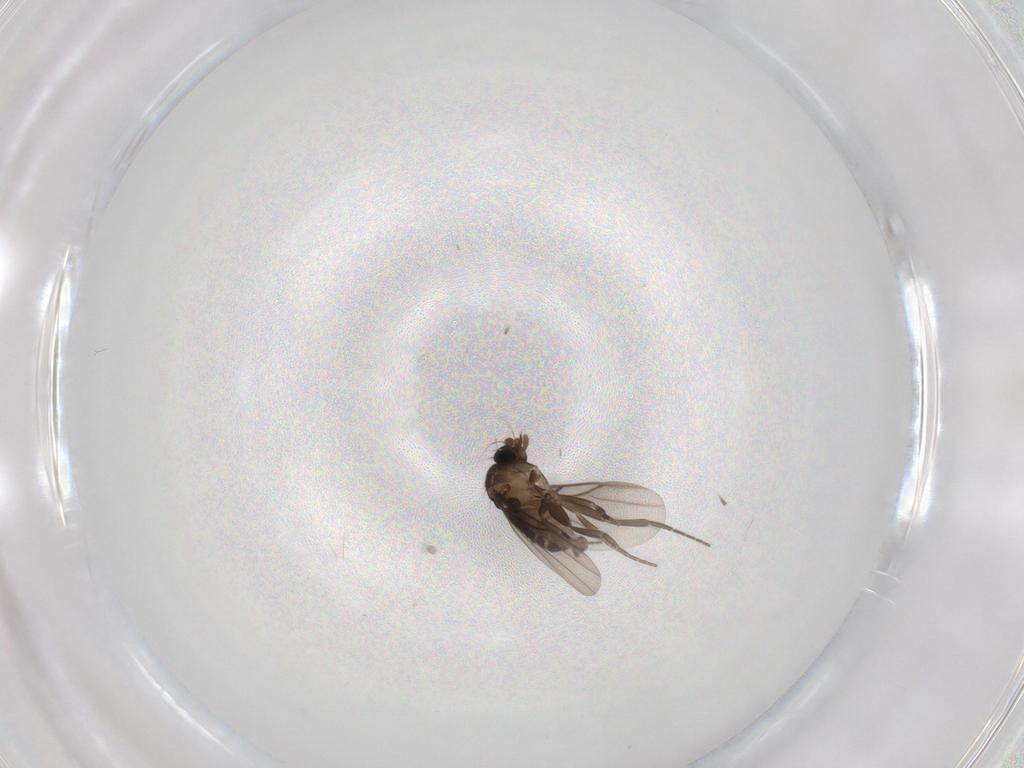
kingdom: Animalia
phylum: Arthropoda
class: Insecta
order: Diptera
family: Phoridae
